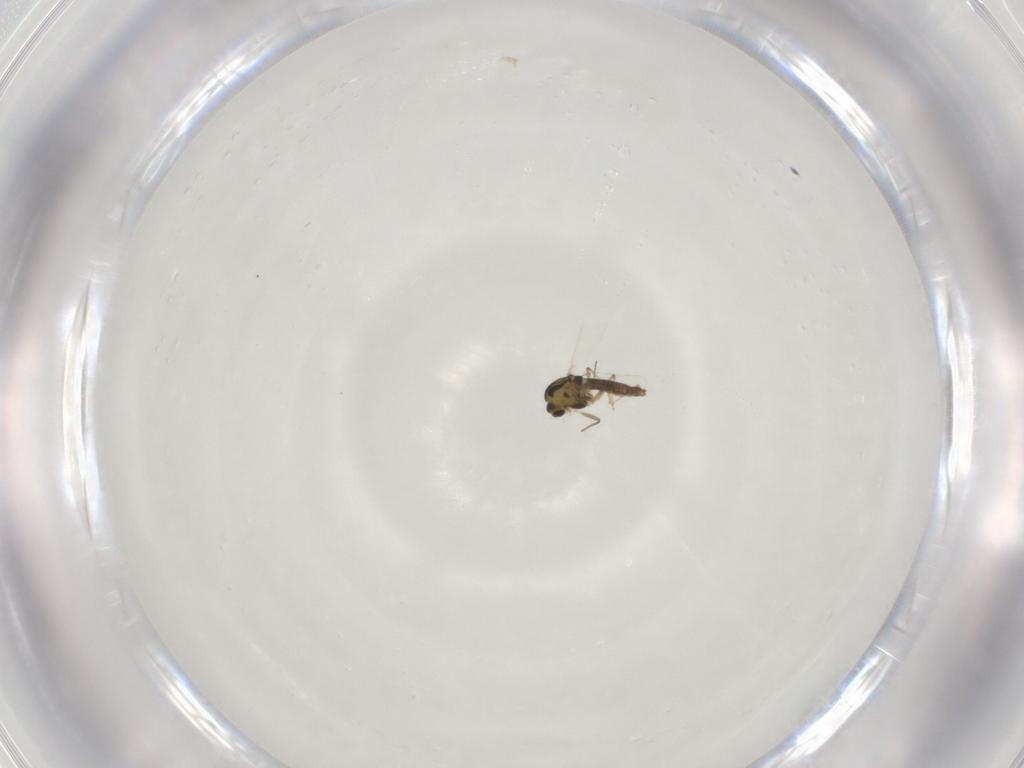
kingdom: Animalia
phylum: Arthropoda
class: Insecta
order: Diptera
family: Chironomidae
